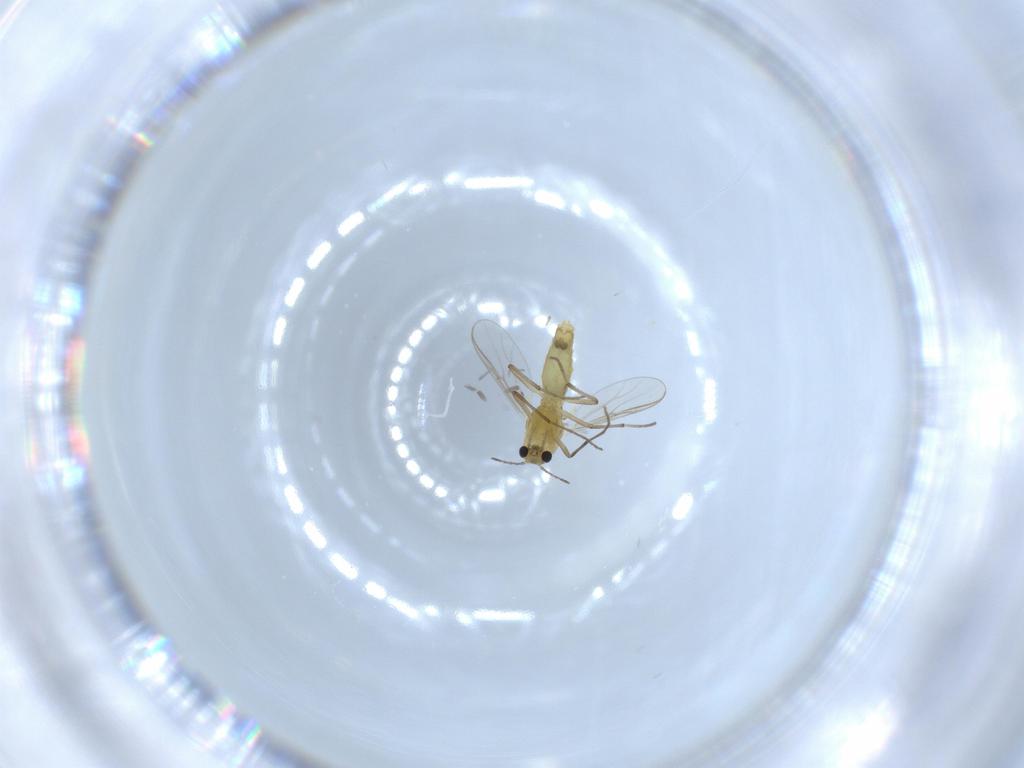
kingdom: Animalia
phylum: Arthropoda
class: Insecta
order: Diptera
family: Chironomidae
